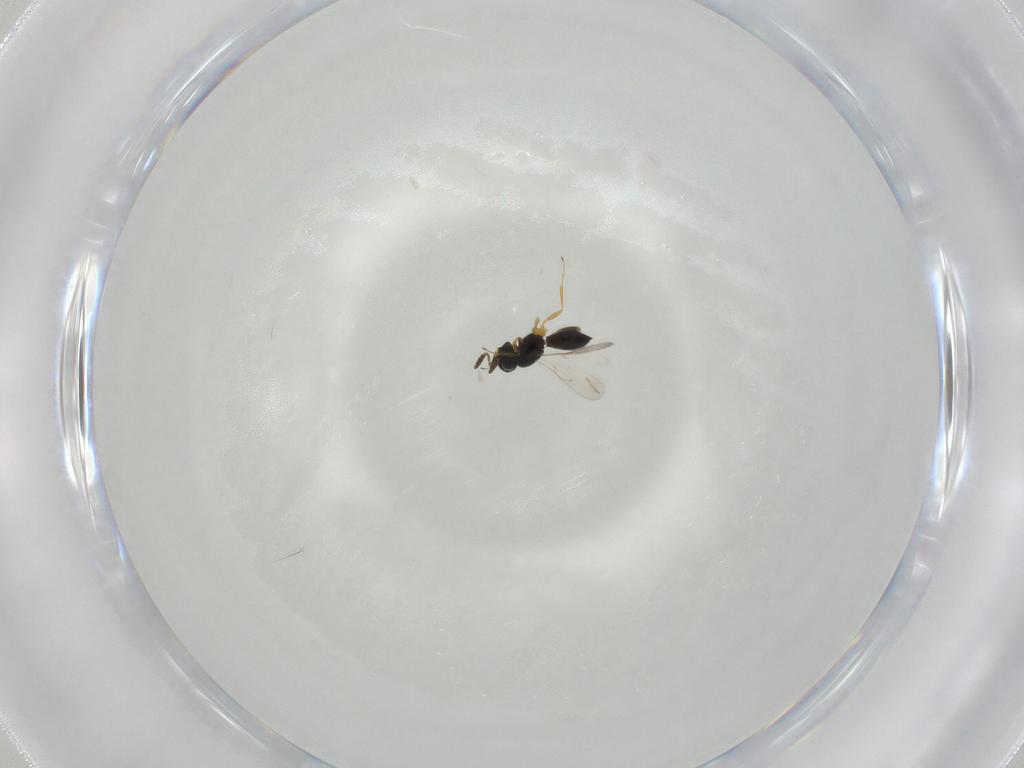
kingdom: Animalia
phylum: Arthropoda
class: Insecta
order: Hymenoptera
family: Scelionidae
